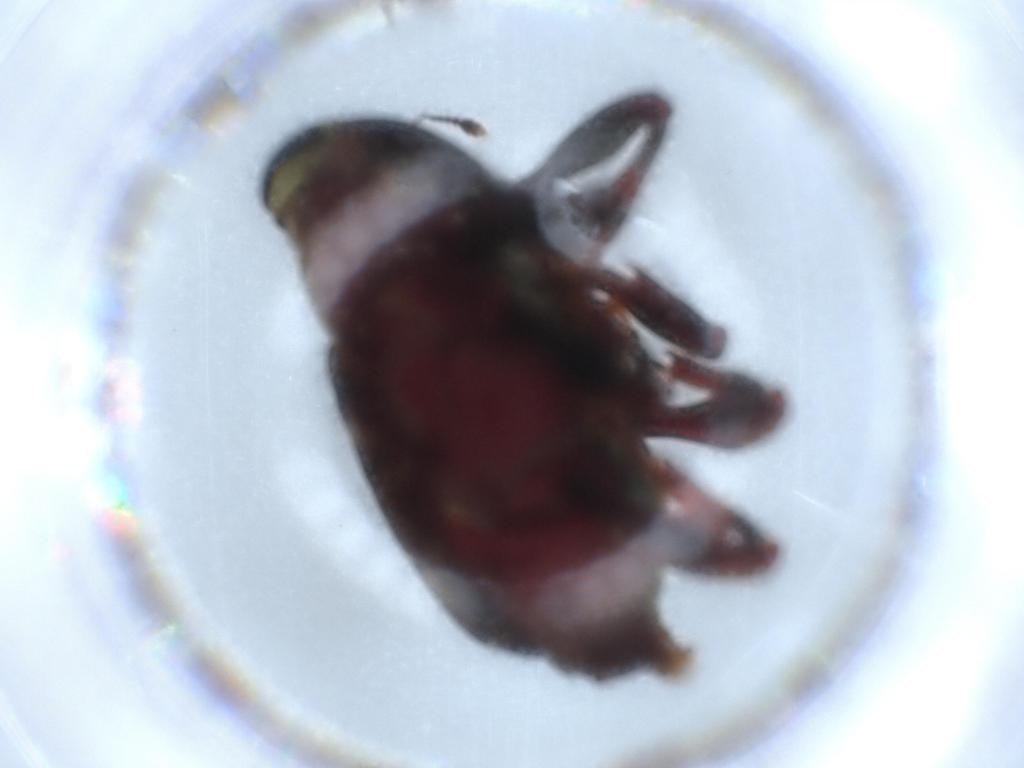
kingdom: Animalia
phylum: Arthropoda
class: Insecta
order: Coleoptera
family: Curculionidae
